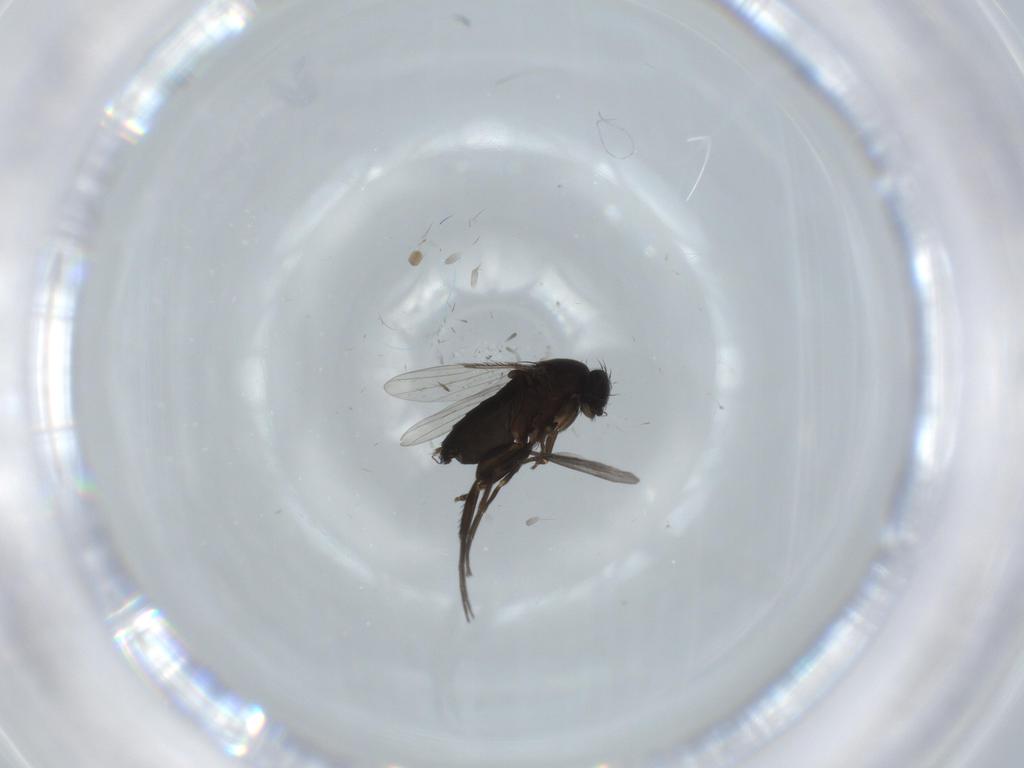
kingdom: Animalia
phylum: Arthropoda
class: Insecta
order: Diptera
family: Phoridae
